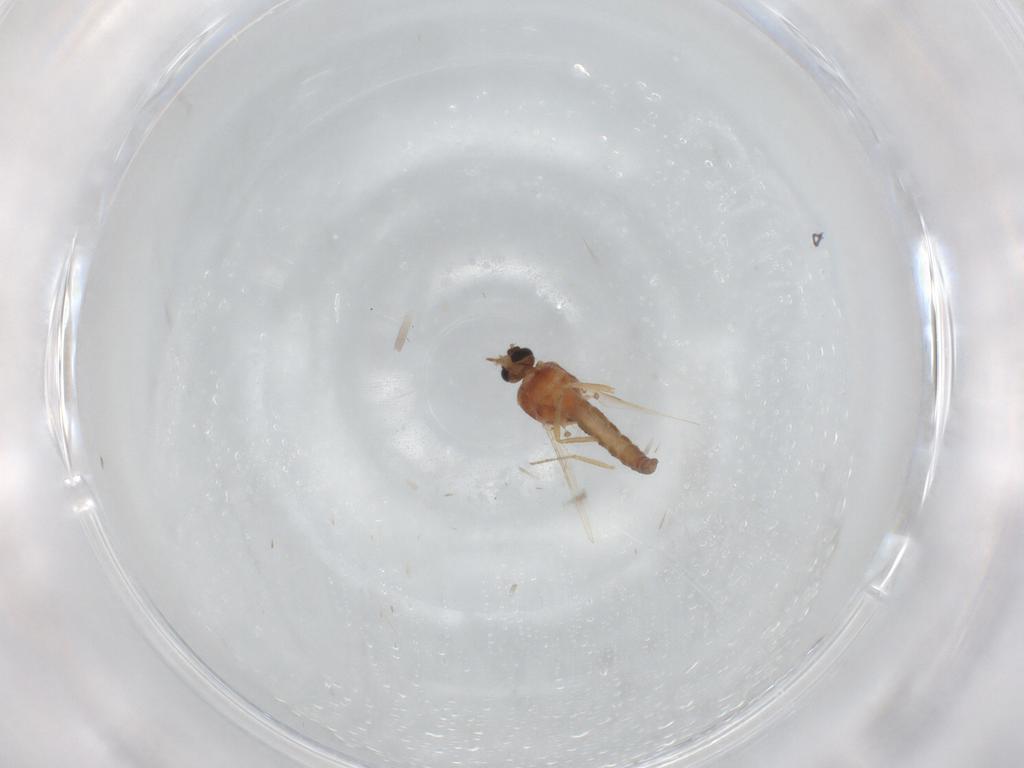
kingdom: Animalia
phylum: Arthropoda
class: Insecta
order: Diptera
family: Ceratopogonidae
